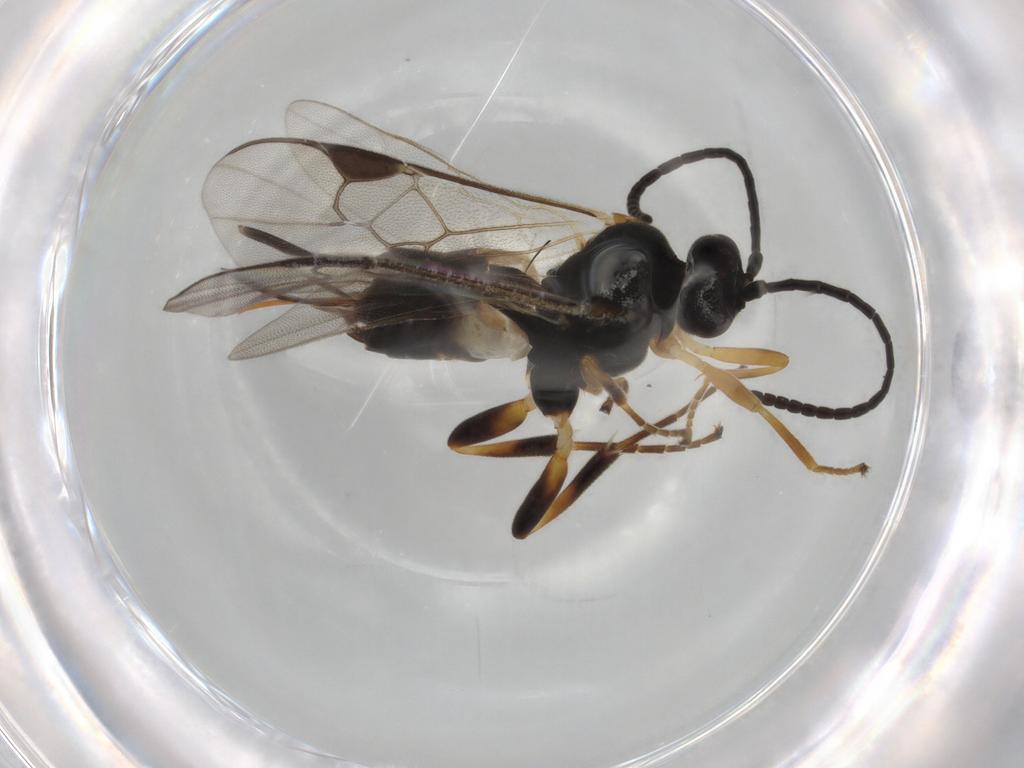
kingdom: Animalia
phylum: Arthropoda
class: Insecta
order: Hymenoptera
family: Braconidae
